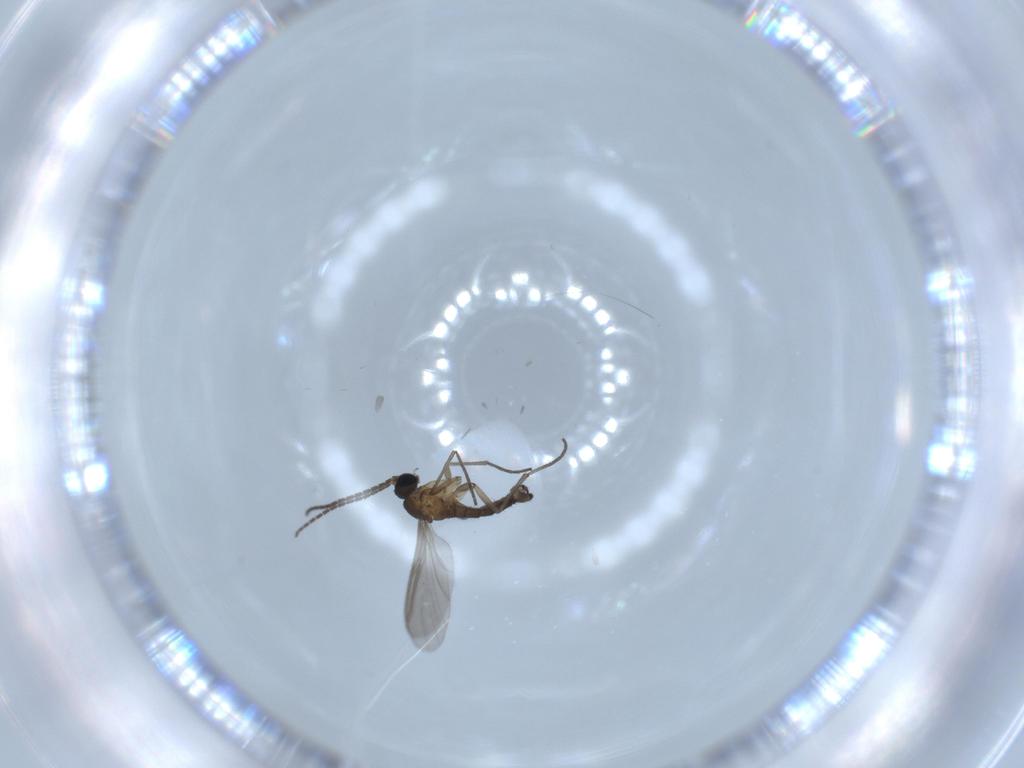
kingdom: Animalia
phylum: Arthropoda
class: Insecta
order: Diptera
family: Sciaridae
